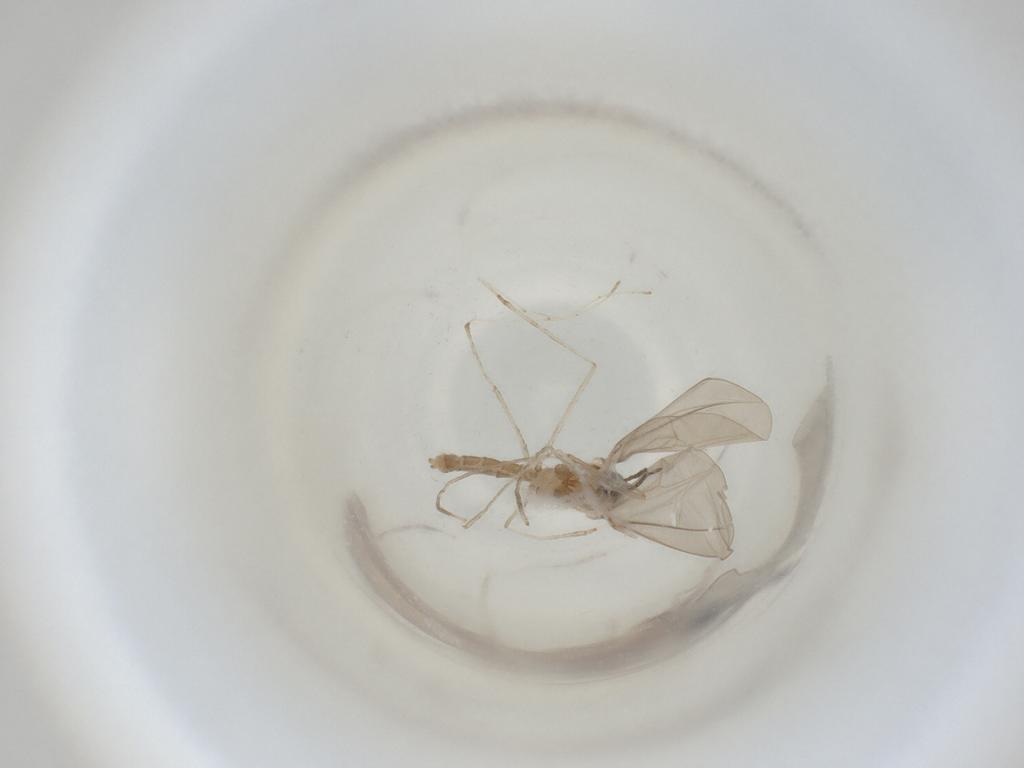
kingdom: Animalia
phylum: Arthropoda
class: Insecta
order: Diptera
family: Cecidomyiidae
